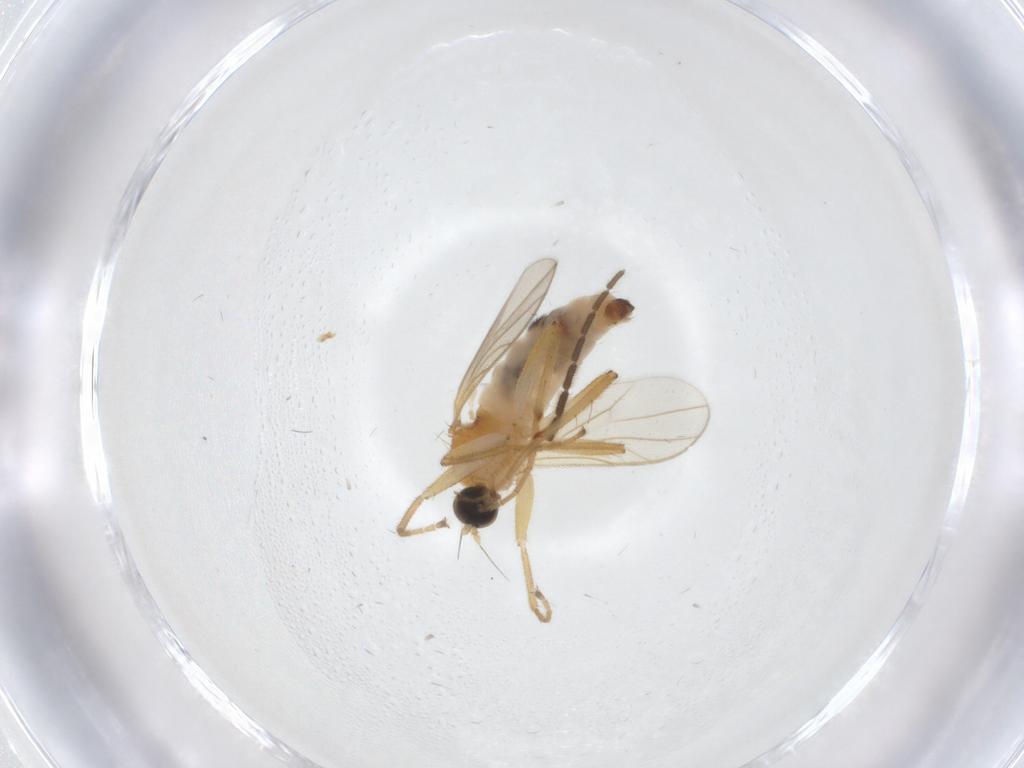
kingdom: Animalia
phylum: Arthropoda
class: Insecta
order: Diptera
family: Hybotidae
